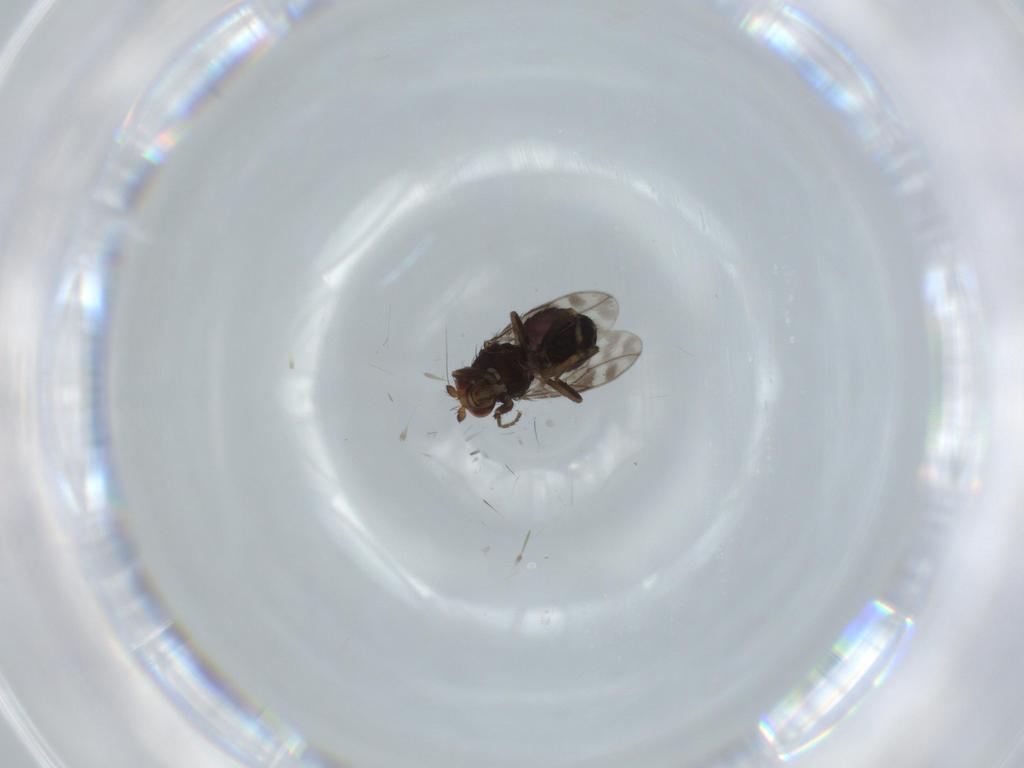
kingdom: Animalia
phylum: Arthropoda
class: Insecta
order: Diptera
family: Sphaeroceridae
